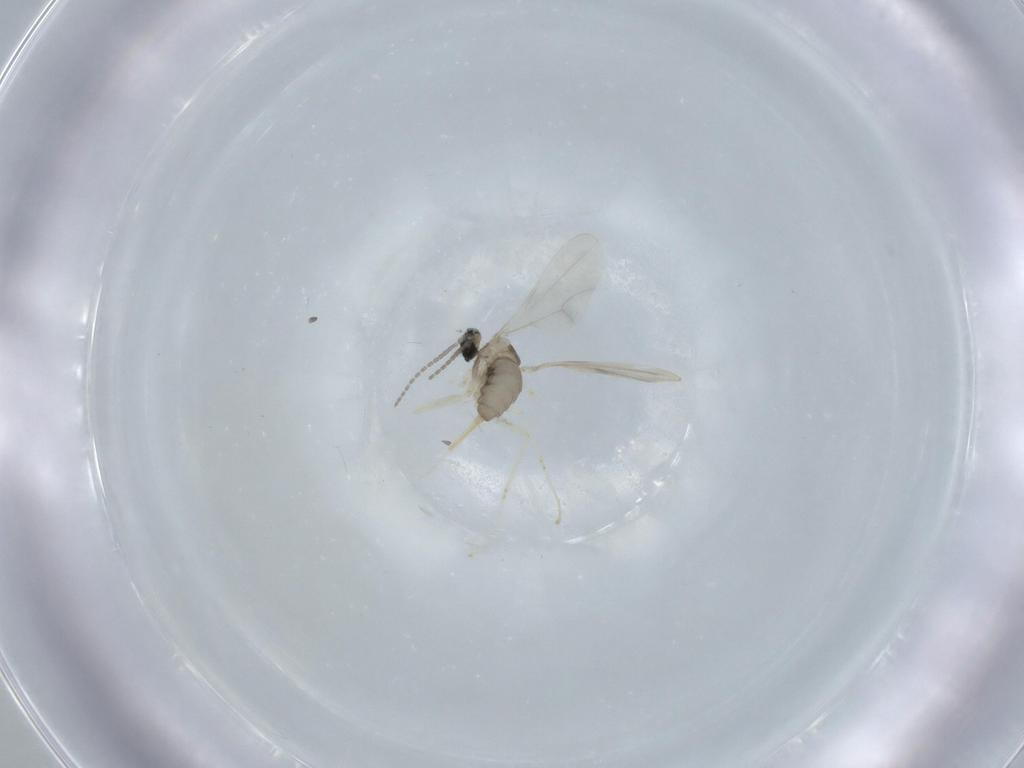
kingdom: Animalia
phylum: Arthropoda
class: Insecta
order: Diptera
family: Cecidomyiidae
